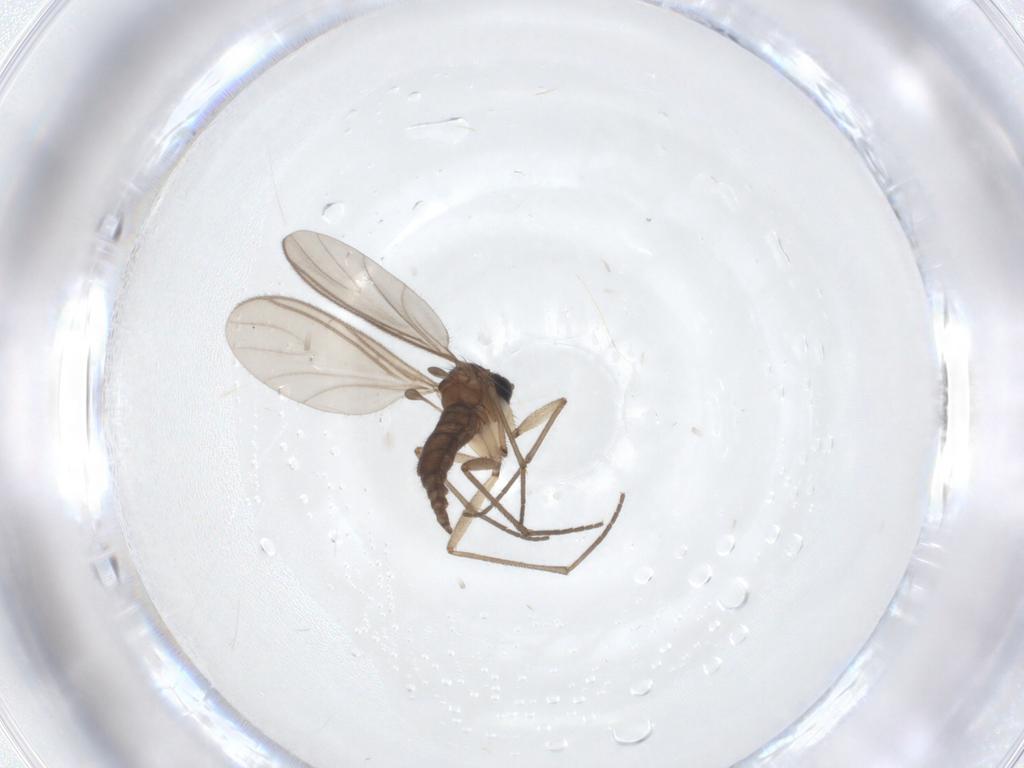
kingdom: Animalia
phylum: Arthropoda
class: Insecta
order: Diptera
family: Sciaridae
